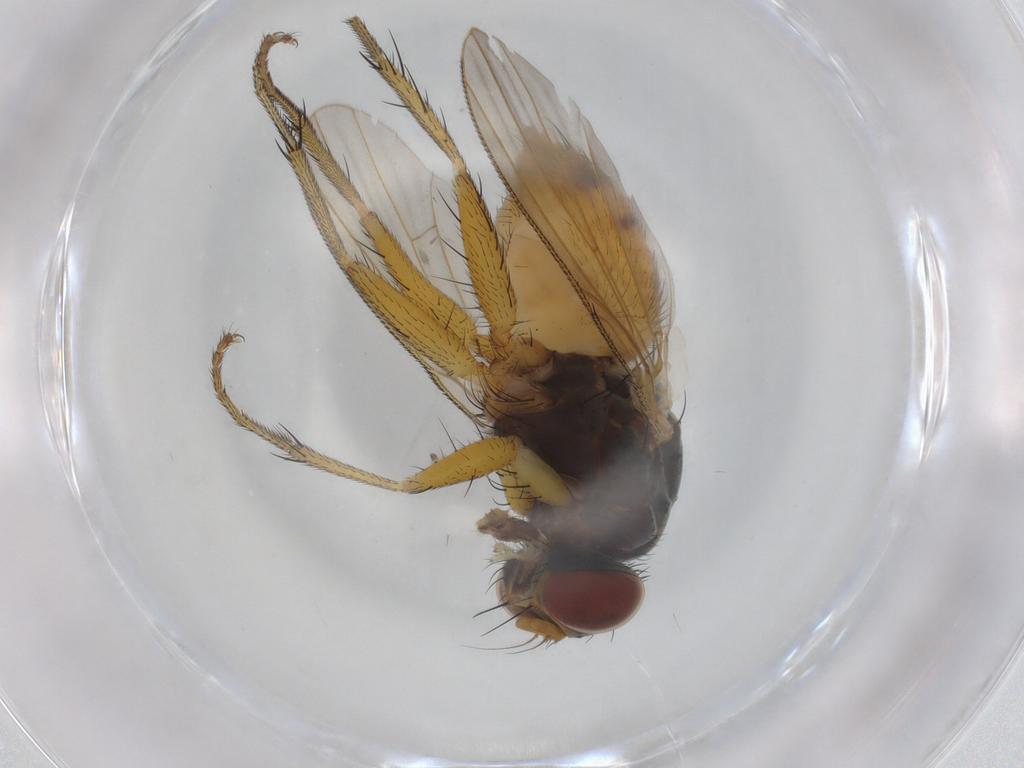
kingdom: Animalia
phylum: Arthropoda
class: Insecta
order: Diptera
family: Muscidae
